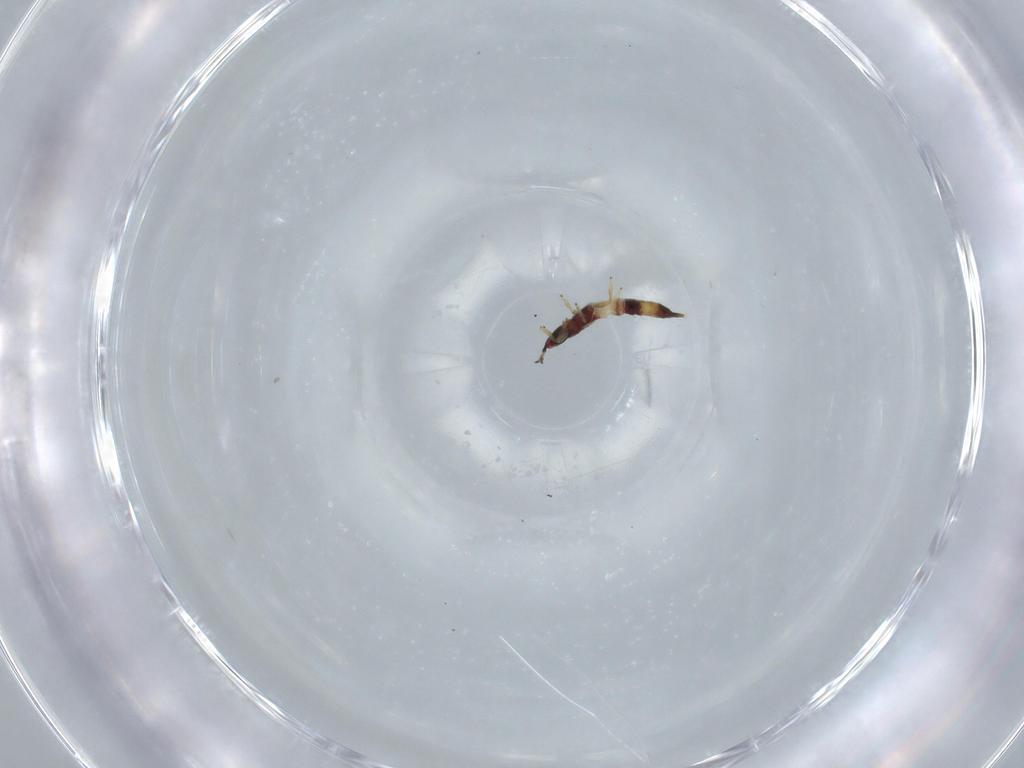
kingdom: Animalia
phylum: Arthropoda
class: Insecta
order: Thysanoptera
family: Phlaeothripidae
